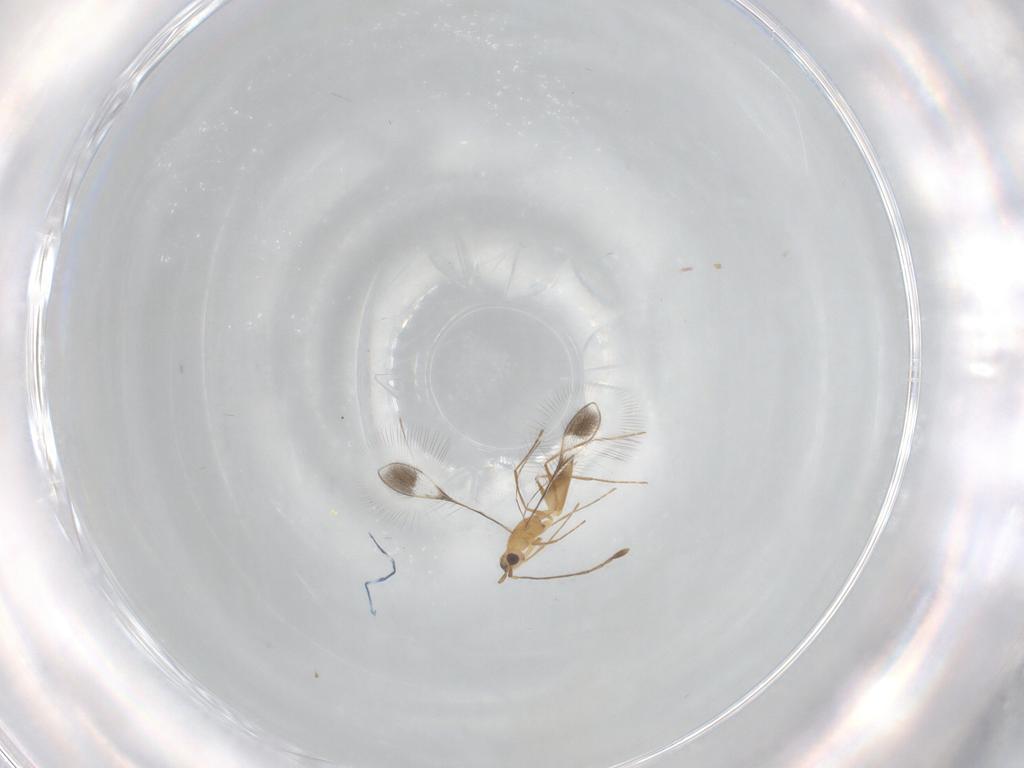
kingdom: Animalia
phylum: Arthropoda
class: Insecta
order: Hymenoptera
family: Mymaridae
